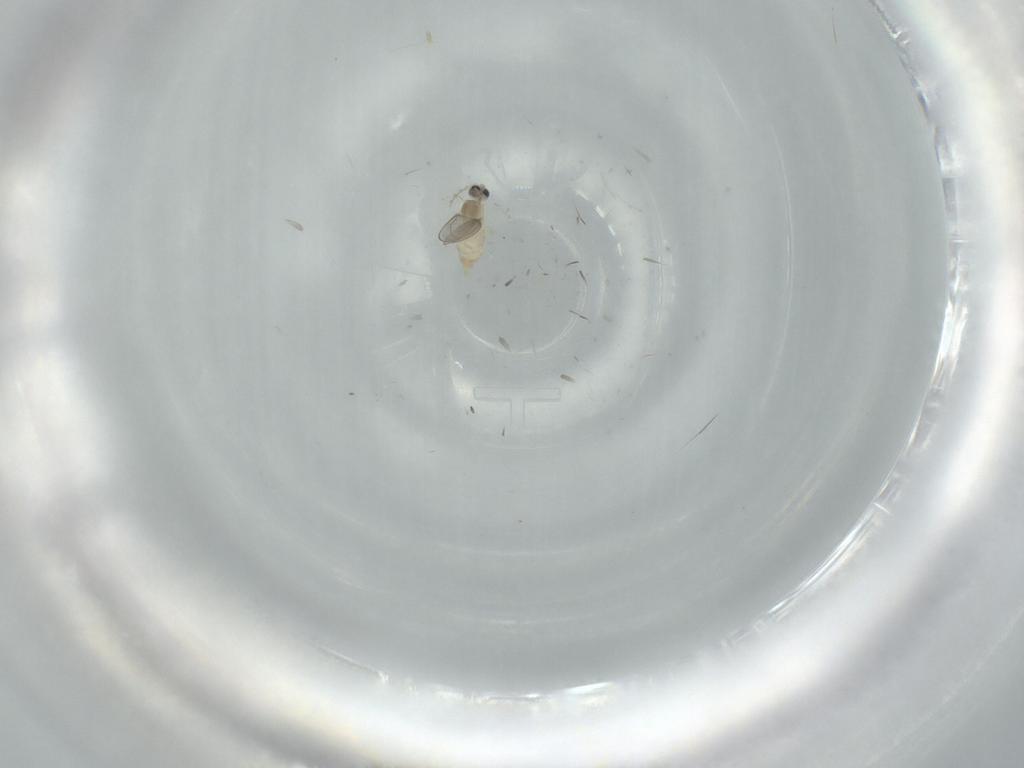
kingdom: Animalia
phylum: Arthropoda
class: Insecta
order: Diptera
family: Cecidomyiidae
